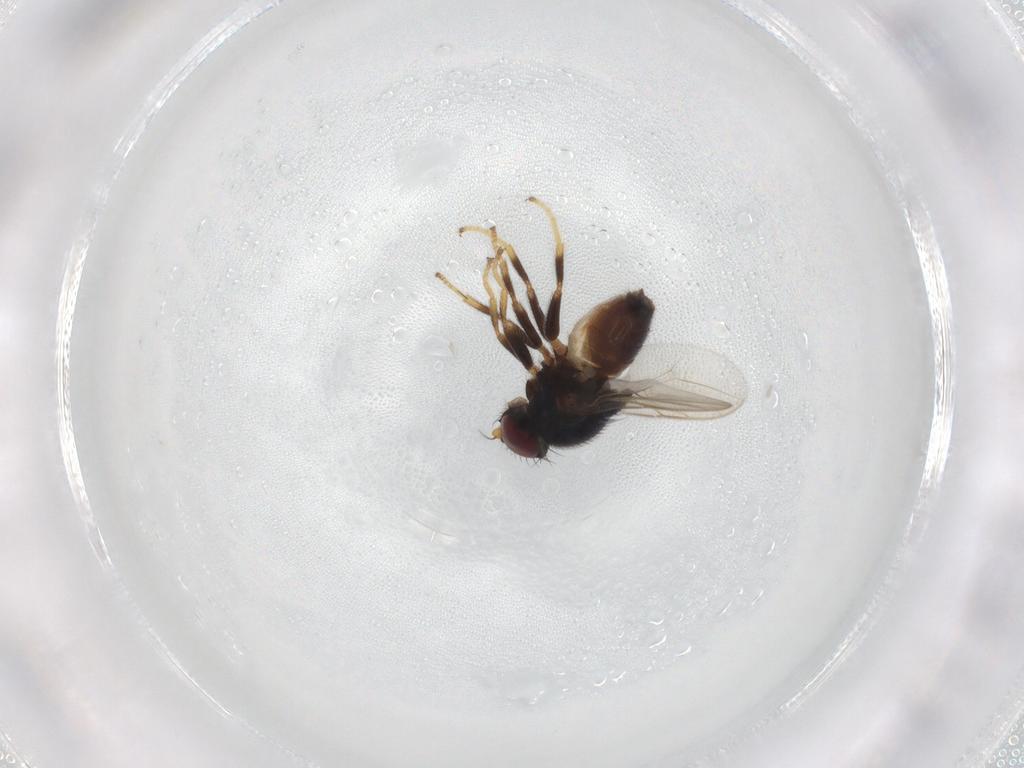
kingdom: Animalia
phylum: Arthropoda
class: Insecta
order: Diptera
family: Chloropidae
